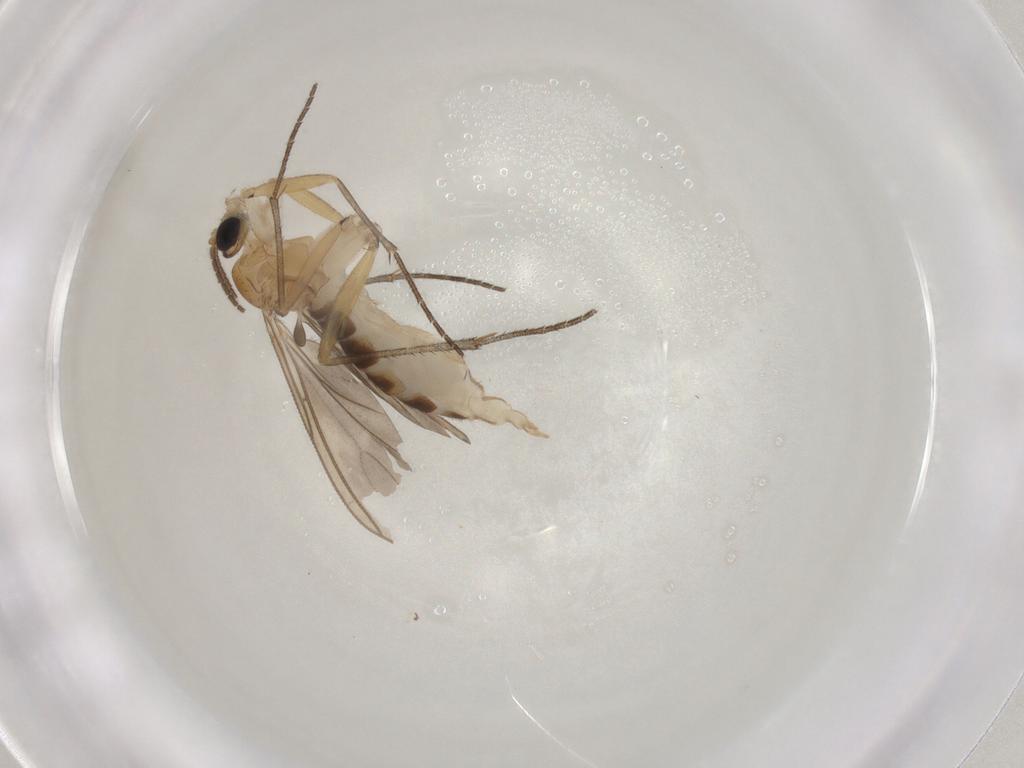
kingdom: Animalia
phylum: Arthropoda
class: Insecta
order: Diptera
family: Sciaridae
